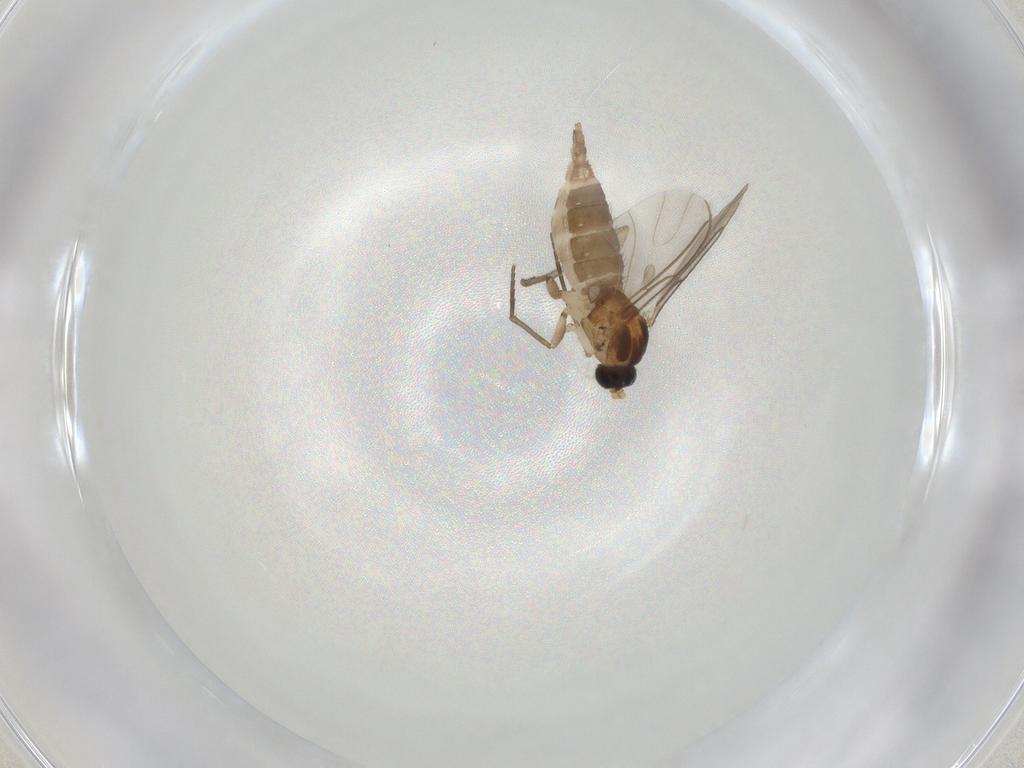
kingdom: Animalia
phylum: Arthropoda
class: Insecta
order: Diptera
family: Sciaridae
